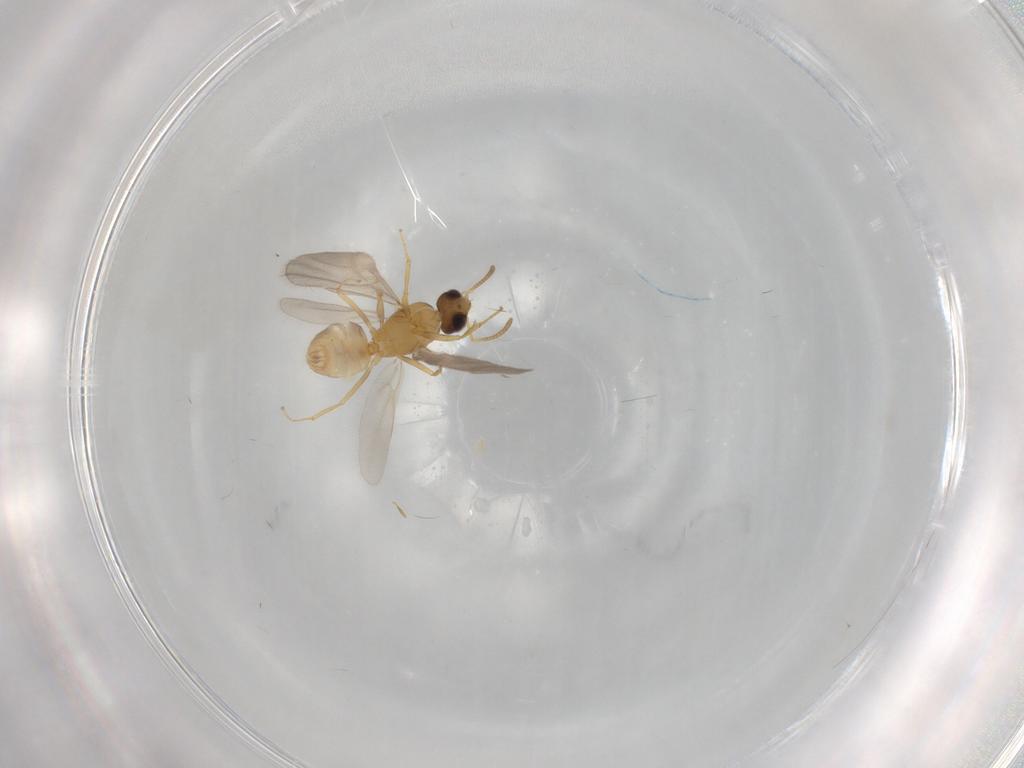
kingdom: Animalia
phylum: Arthropoda
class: Insecta
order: Hymenoptera
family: Formicidae
